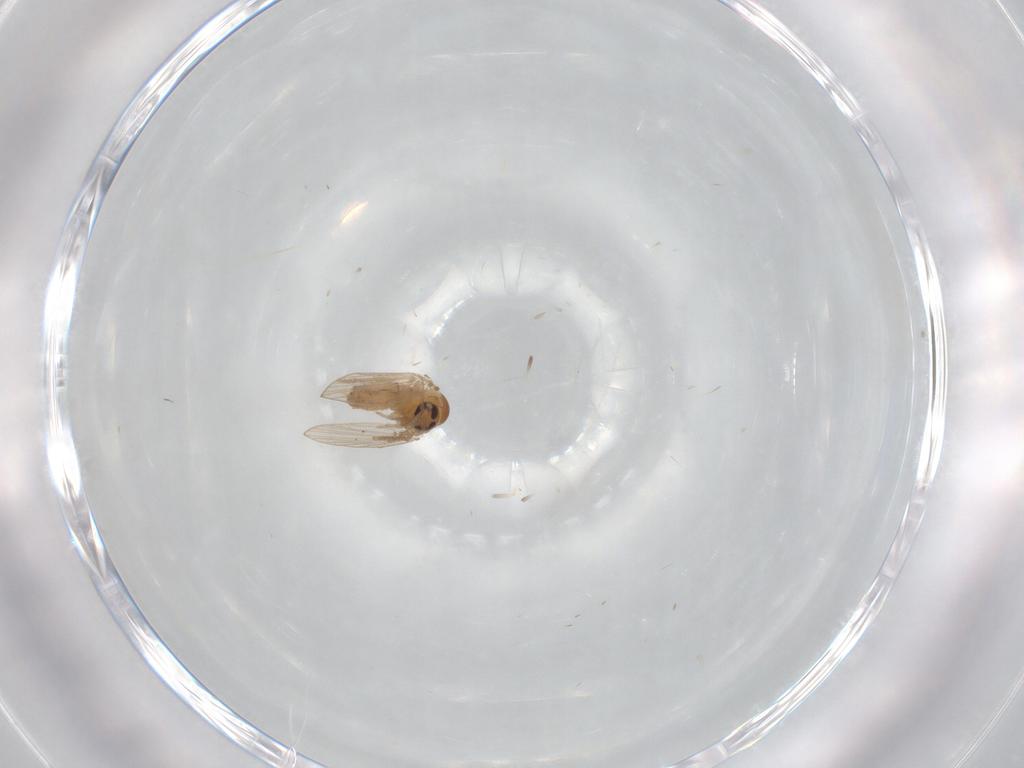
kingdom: Animalia
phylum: Arthropoda
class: Insecta
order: Diptera
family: Psychodidae
